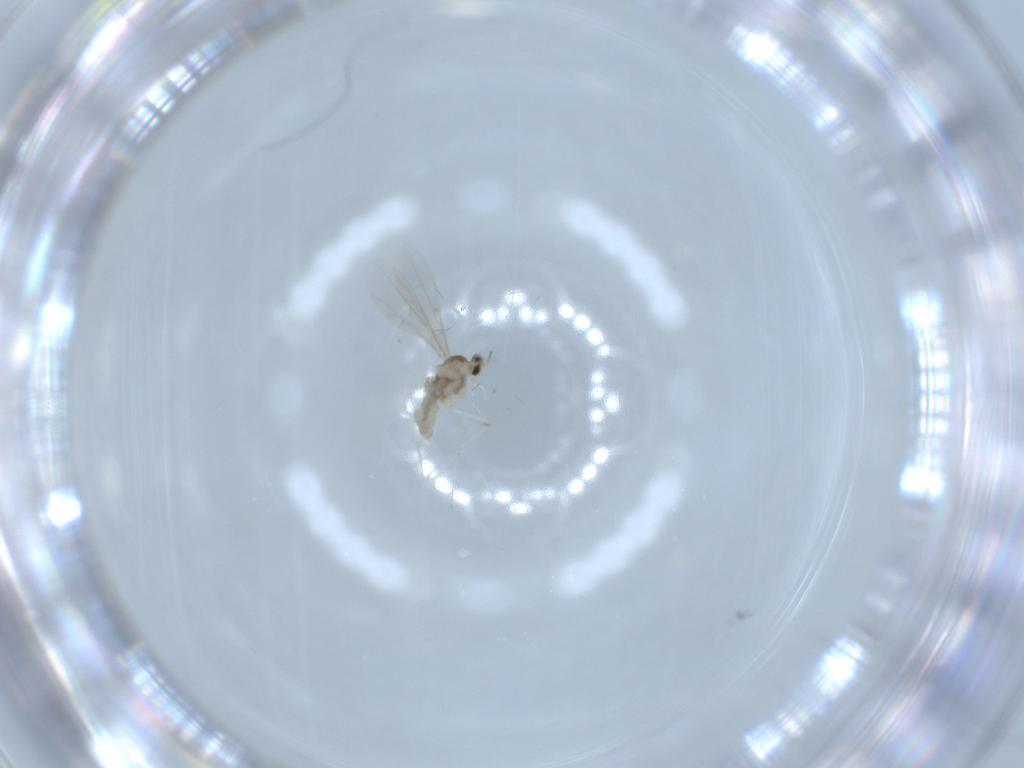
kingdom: Animalia
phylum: Arthropoda
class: Insecta
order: Diptera
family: Cecidomyiidae
